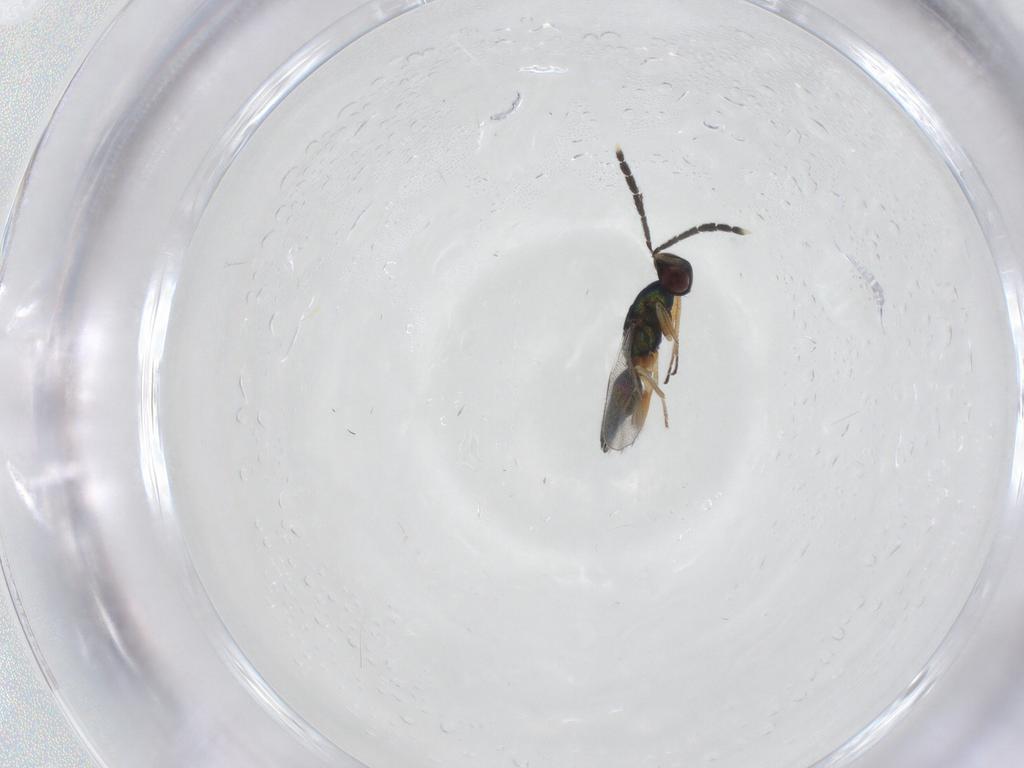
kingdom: Animalia
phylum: Arthropoda
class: Insecta
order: Hymenoptera
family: Eulophidae
